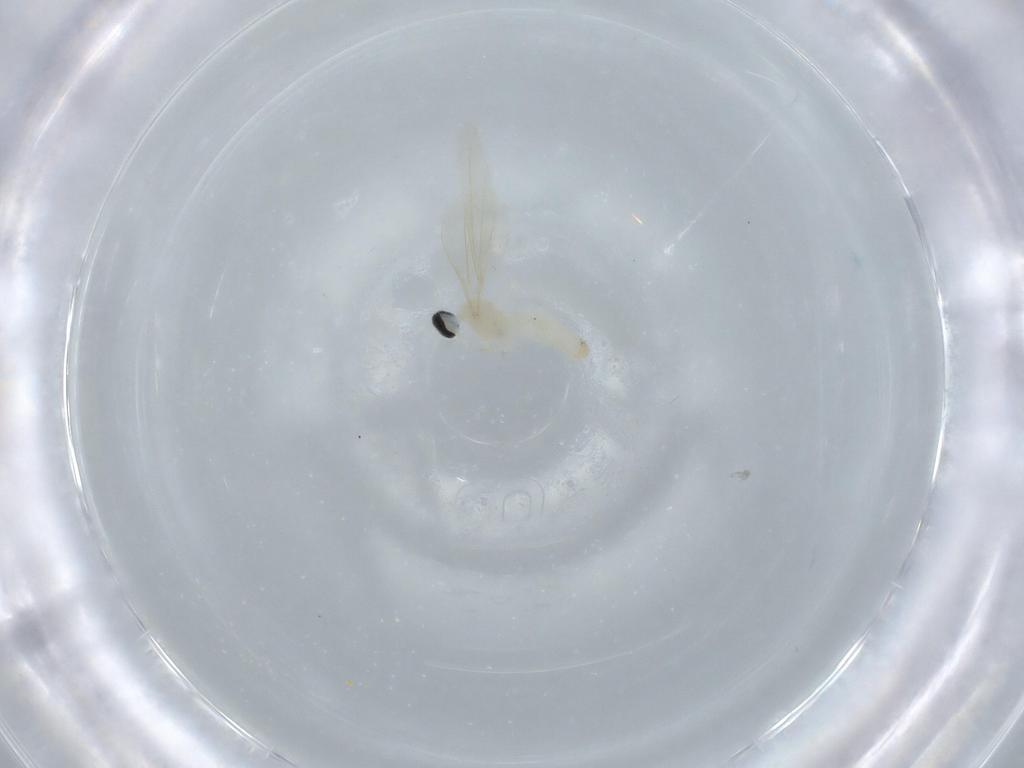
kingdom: Animalia
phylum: Arthropoda
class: Insecta
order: Diptera
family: Cecidomyiidae
